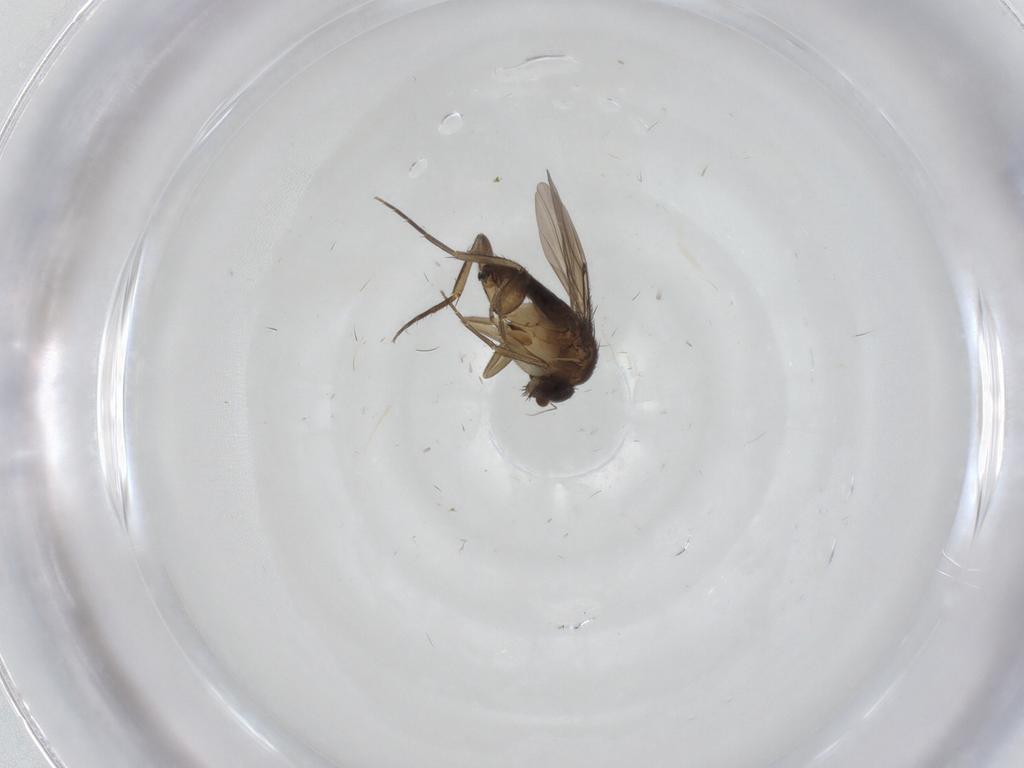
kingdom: Animalia
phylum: Arthropoda
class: Insecta
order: Diptera
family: Phoridae
